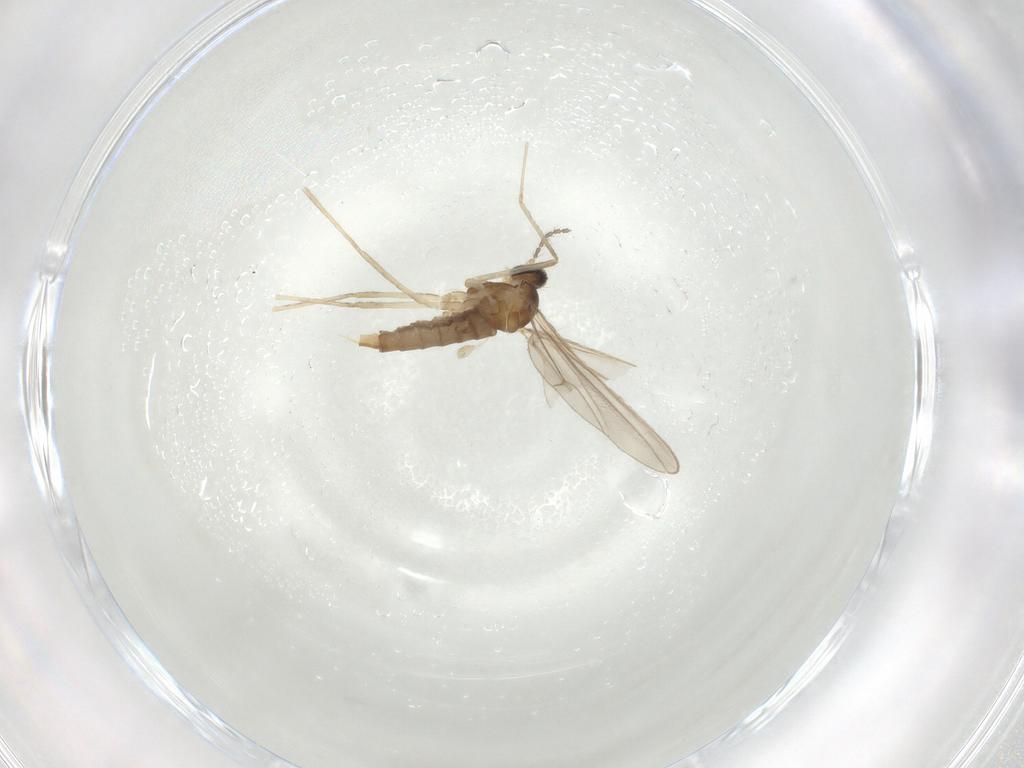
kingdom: Animalia
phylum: Arthropoda
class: Insecta
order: Diptera
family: Cecidomyiidae
